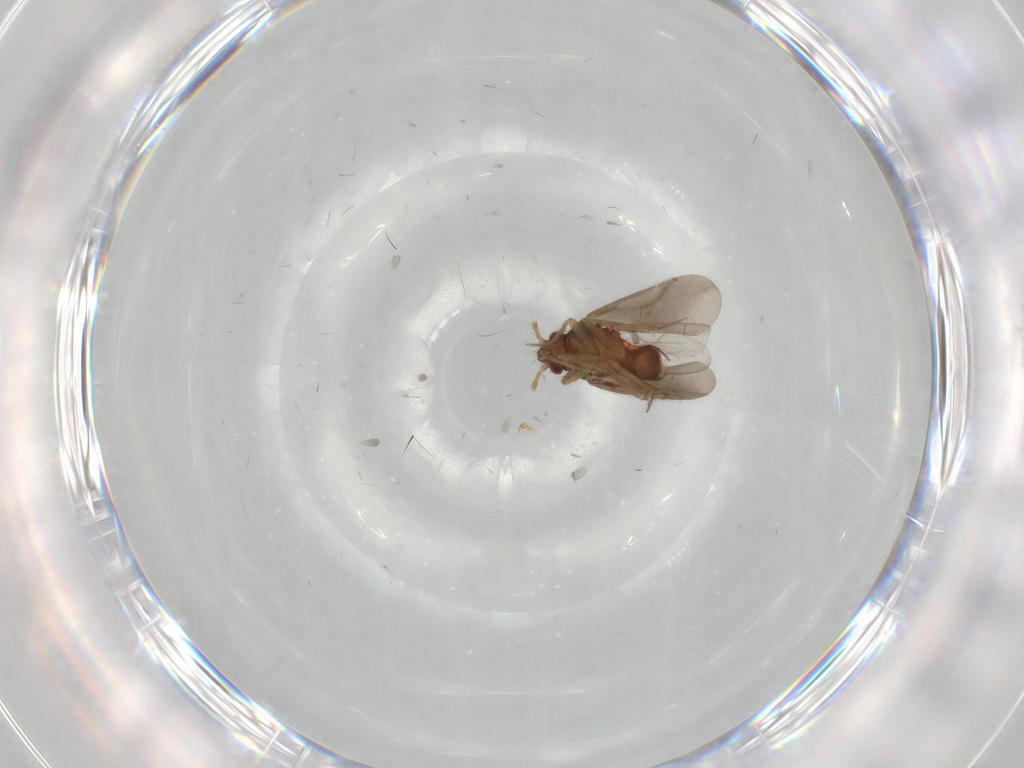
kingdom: Animalia
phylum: Arthropoda
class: Insecta
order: Hemiptera
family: Ceratocombidae
